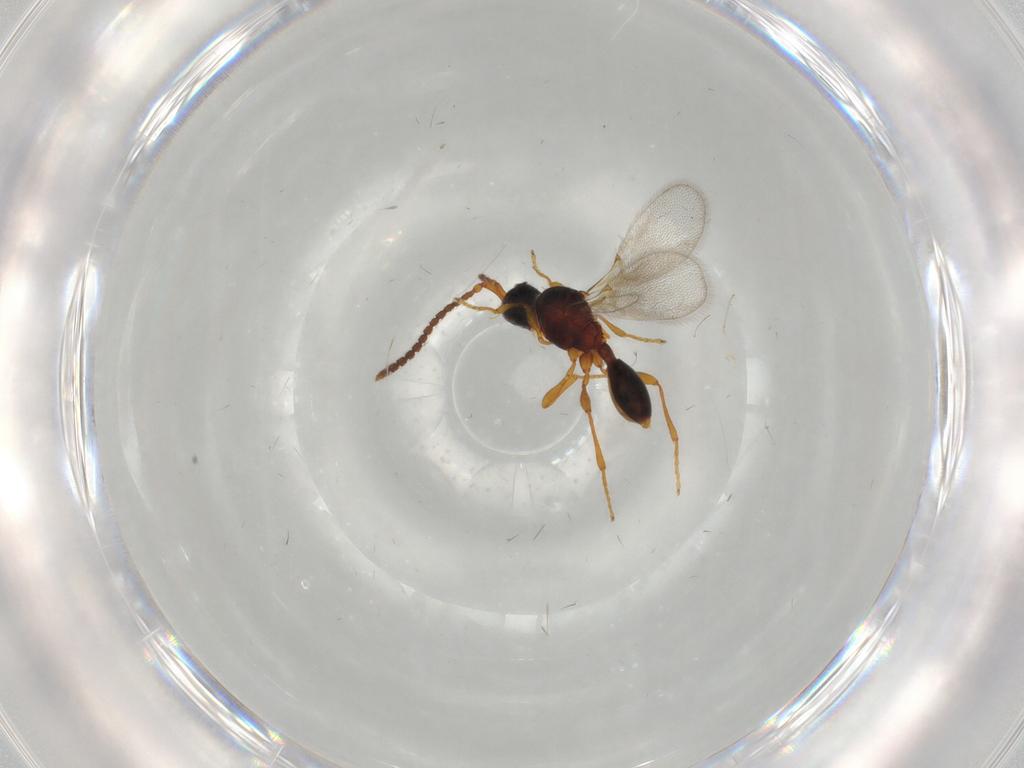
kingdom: Animalia
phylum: Arthropoda
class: Insecta
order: Hymenoptera
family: Diapriidae
